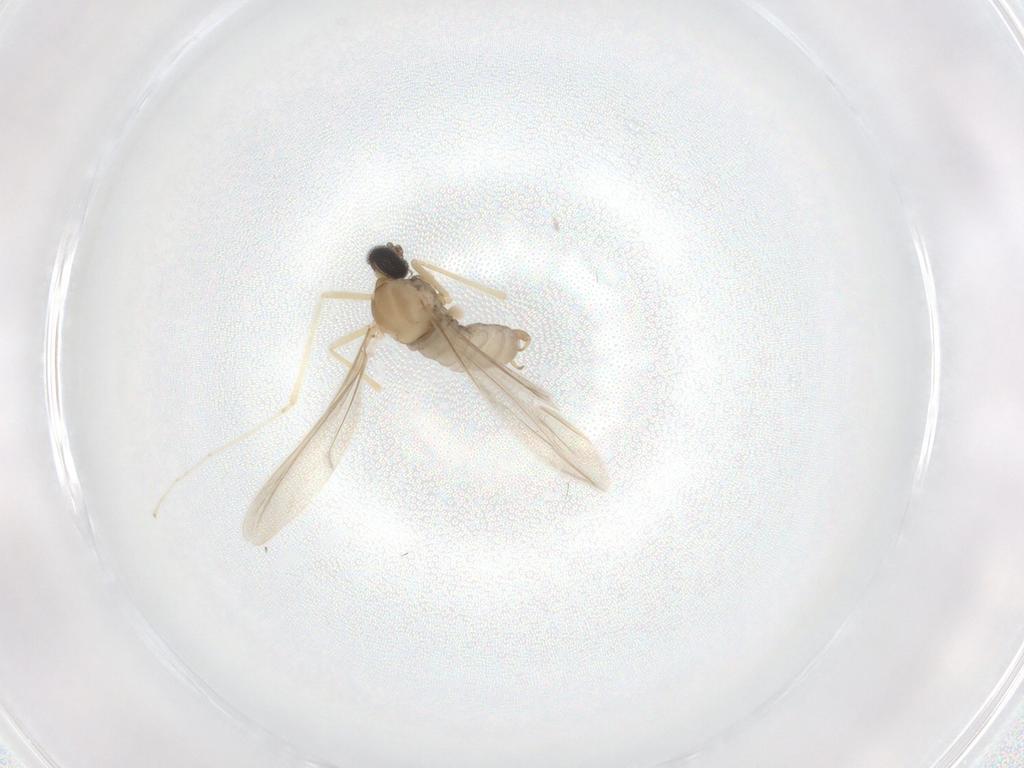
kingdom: Animalia
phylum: Arthropoda
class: Insecta
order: Diptera
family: Cecidomyiidae
